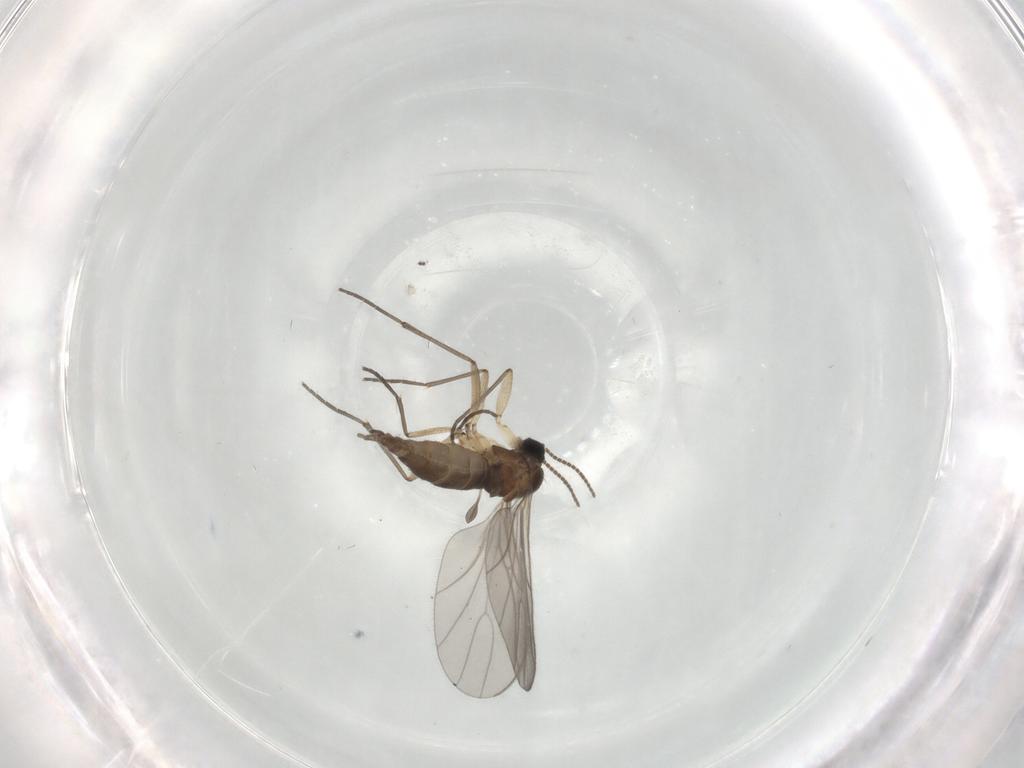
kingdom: Animalia
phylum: Arthropoda
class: Insecta
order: Diptera
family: Sciaridae
